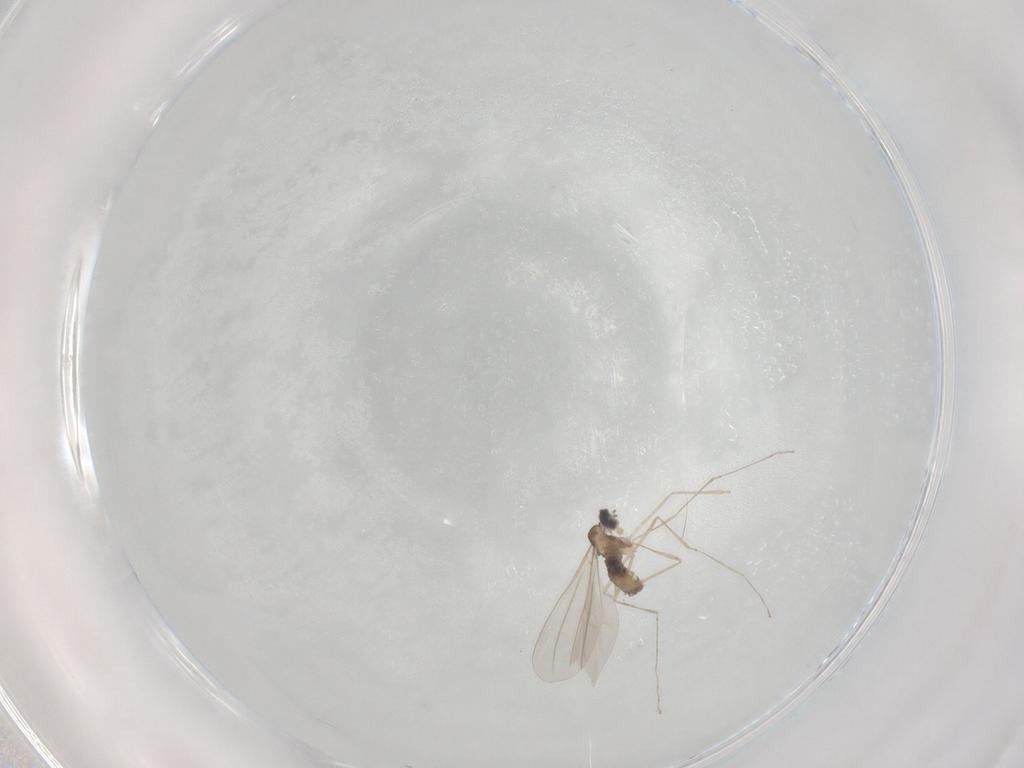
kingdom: Animalia
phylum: Arthropoda
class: Insecta
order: Diptera
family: Cecidomyiidae
